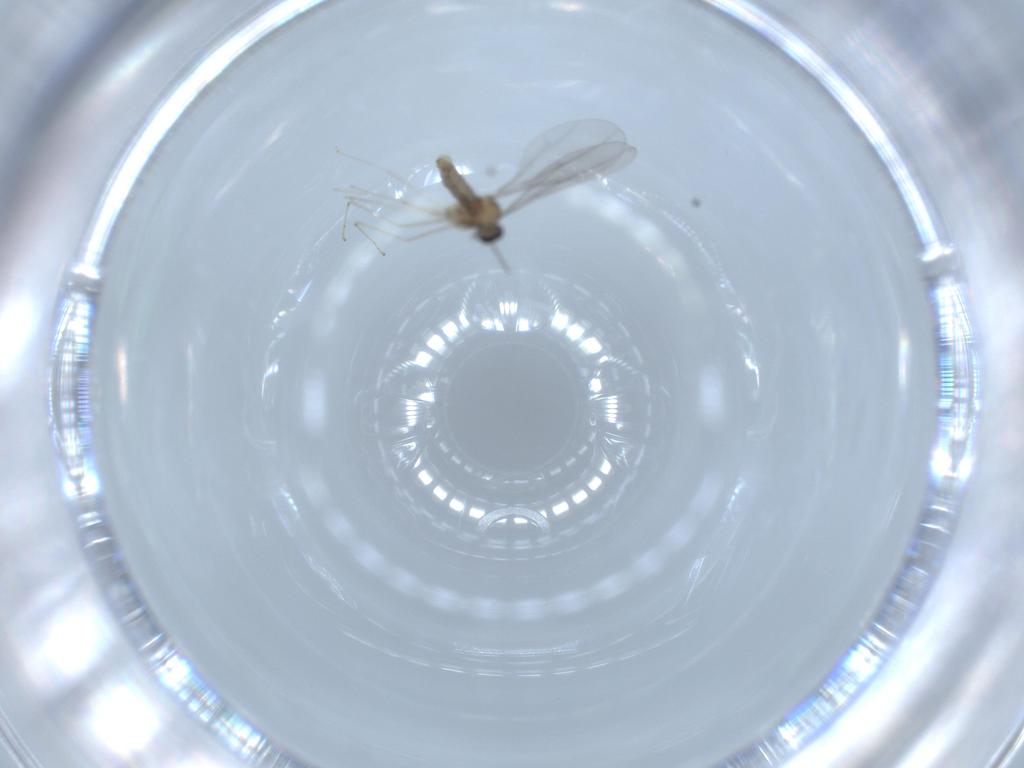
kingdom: Animalia
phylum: Arthropoda
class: Insecta
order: Diptera
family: Cecidomyiidae
